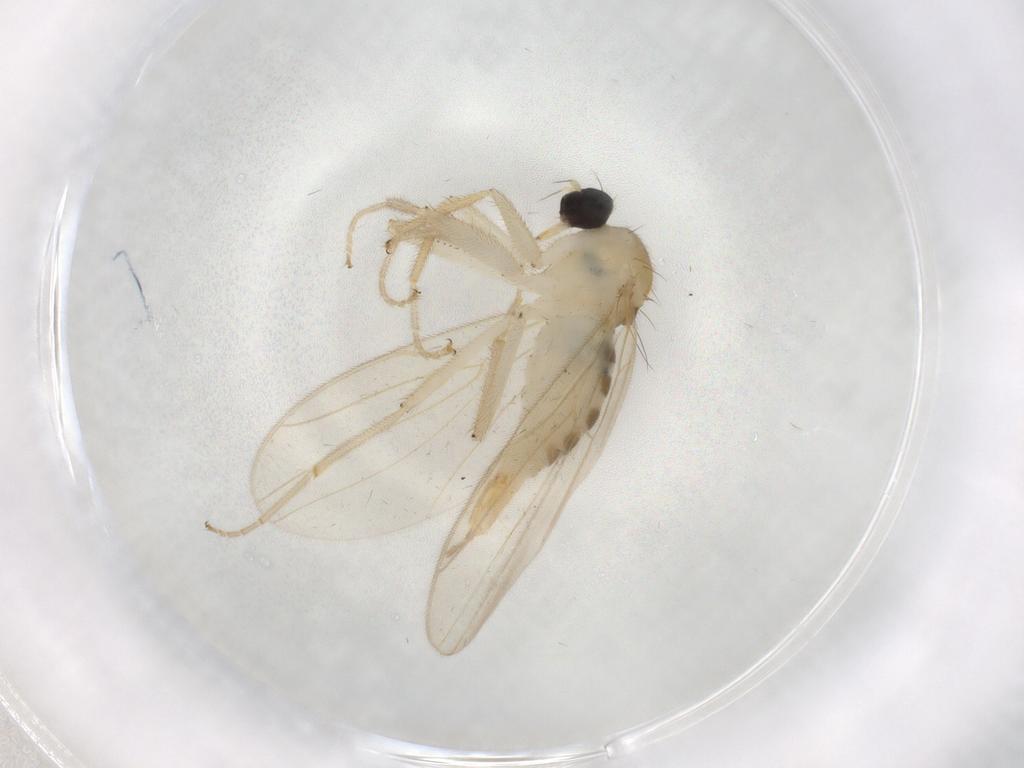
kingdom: Animalia
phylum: Arthropoda
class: Insecta
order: Diptera
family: Hybotidae
